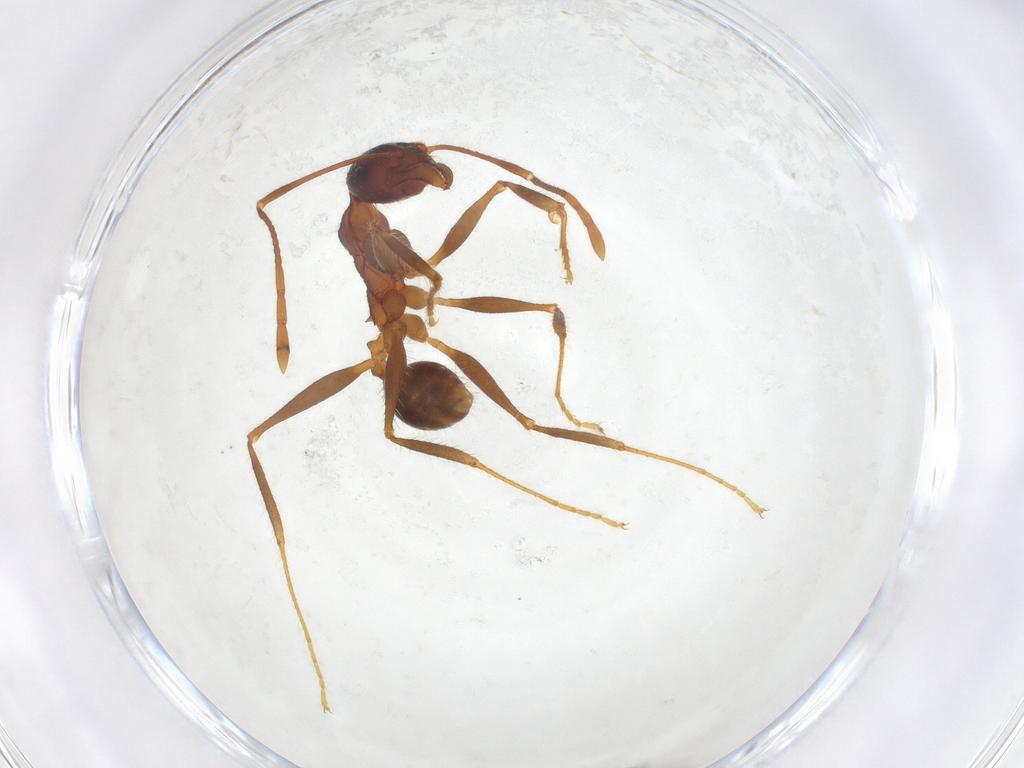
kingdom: Animalia
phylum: Arthropoda
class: Insecta
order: Hymenoptera
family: Formicidae
